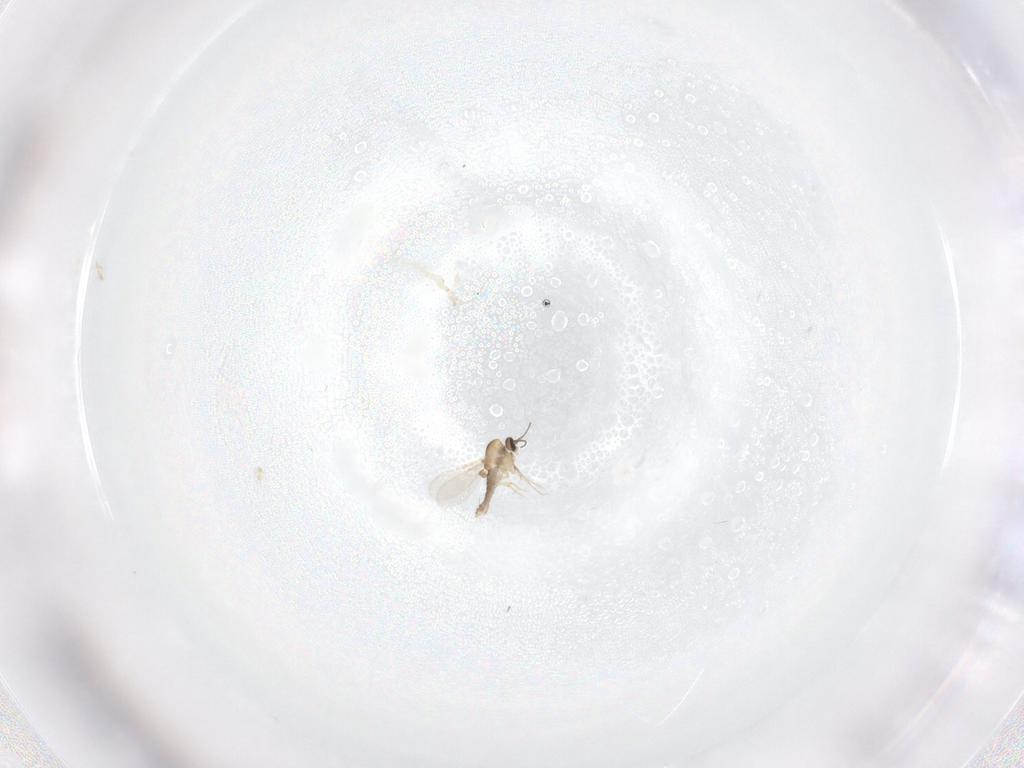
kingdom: Animalia
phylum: Arthropoda
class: Insecta
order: Diptera
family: Ceratopogonidae
